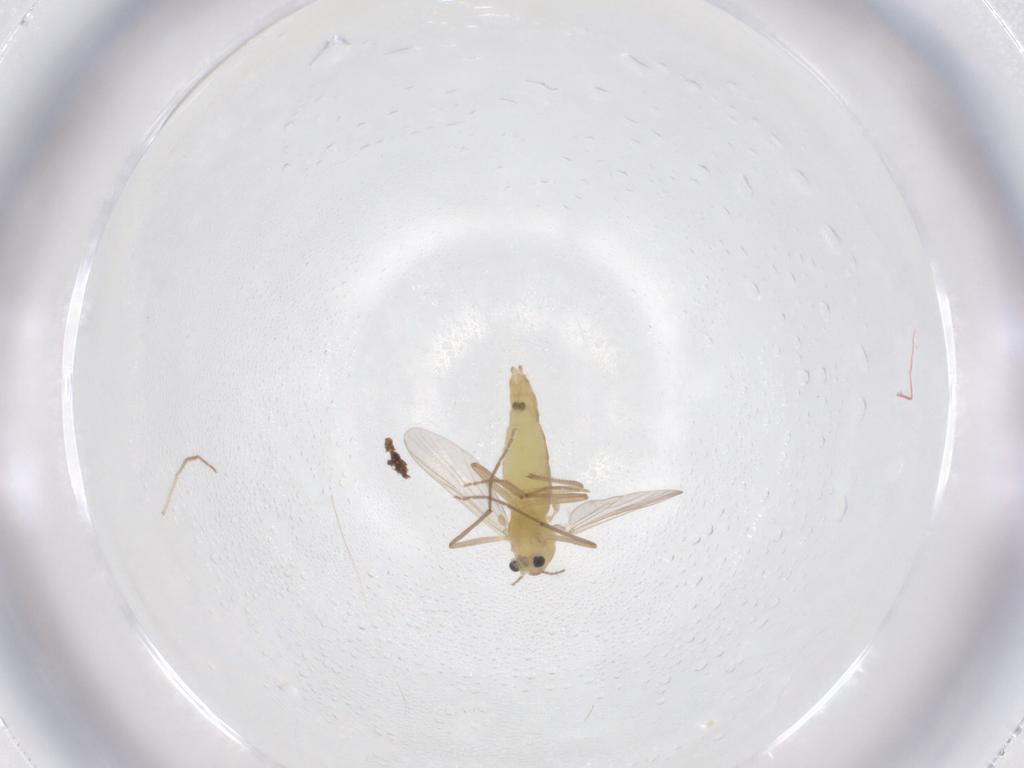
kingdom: Animalia
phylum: Arthropoda
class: Insecta
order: Diptera
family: Chironomidae
